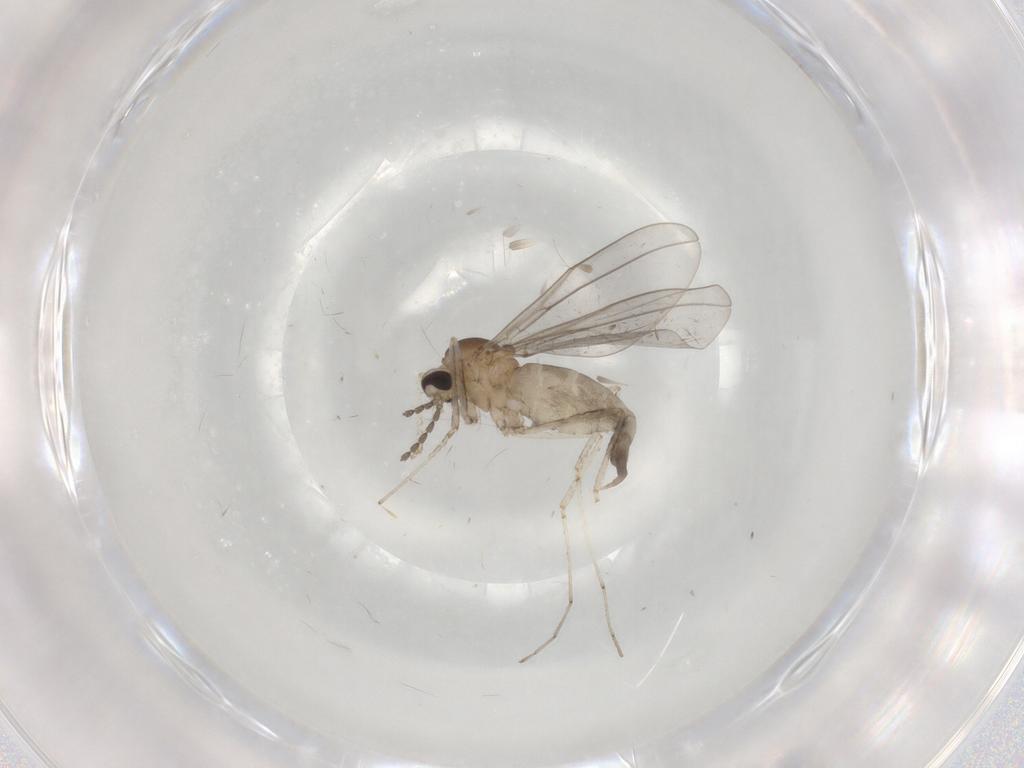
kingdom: Animalia
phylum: Arthropoda
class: Insecta
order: Diptera
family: Cecidomyiidae
